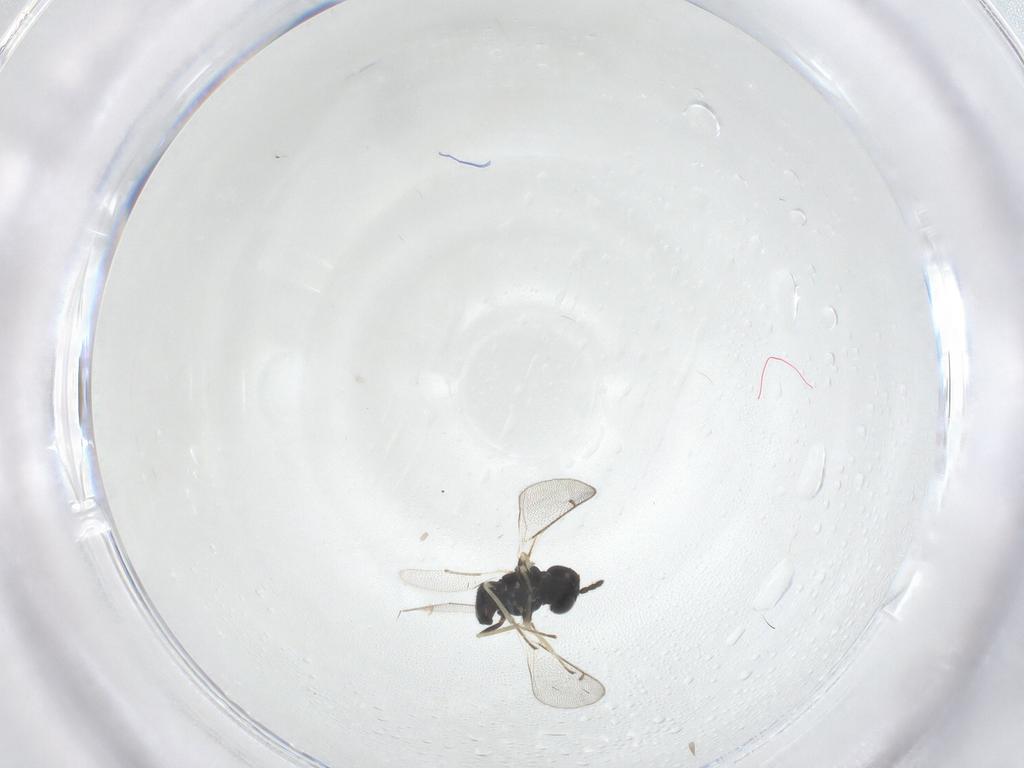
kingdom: Animalia
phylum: Arthropoda
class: Insecta
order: Hymenoptera
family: Eulophidae
